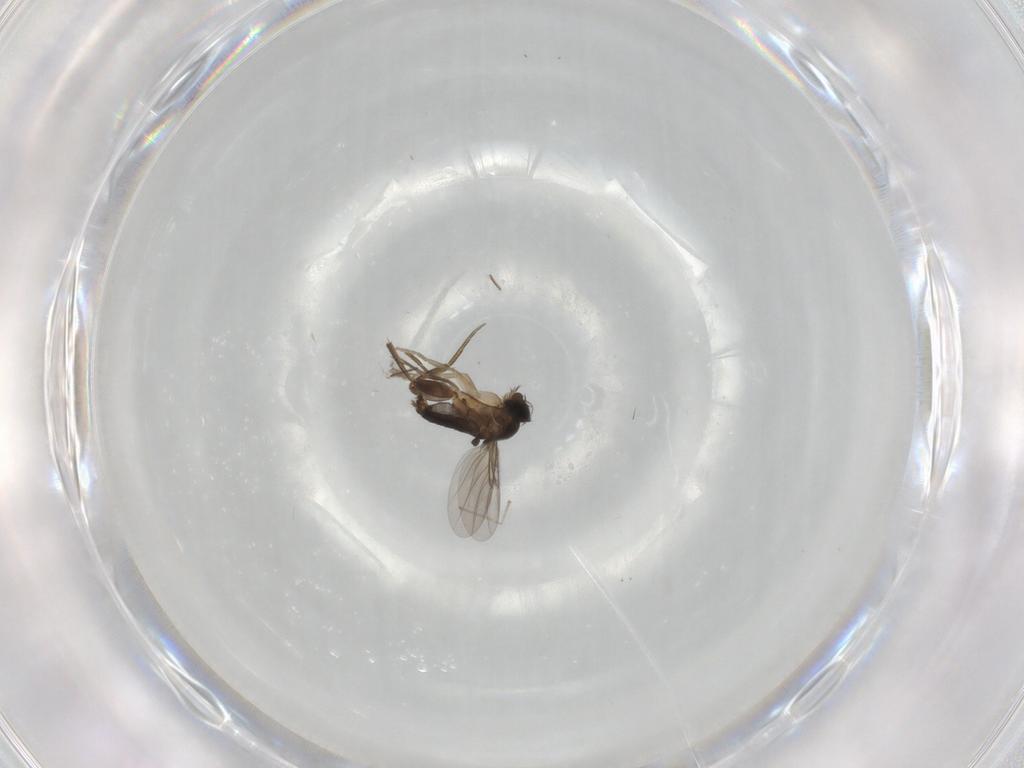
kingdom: Animalia
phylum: Arthropoda
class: Insecta
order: Diptera
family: Phoridae
